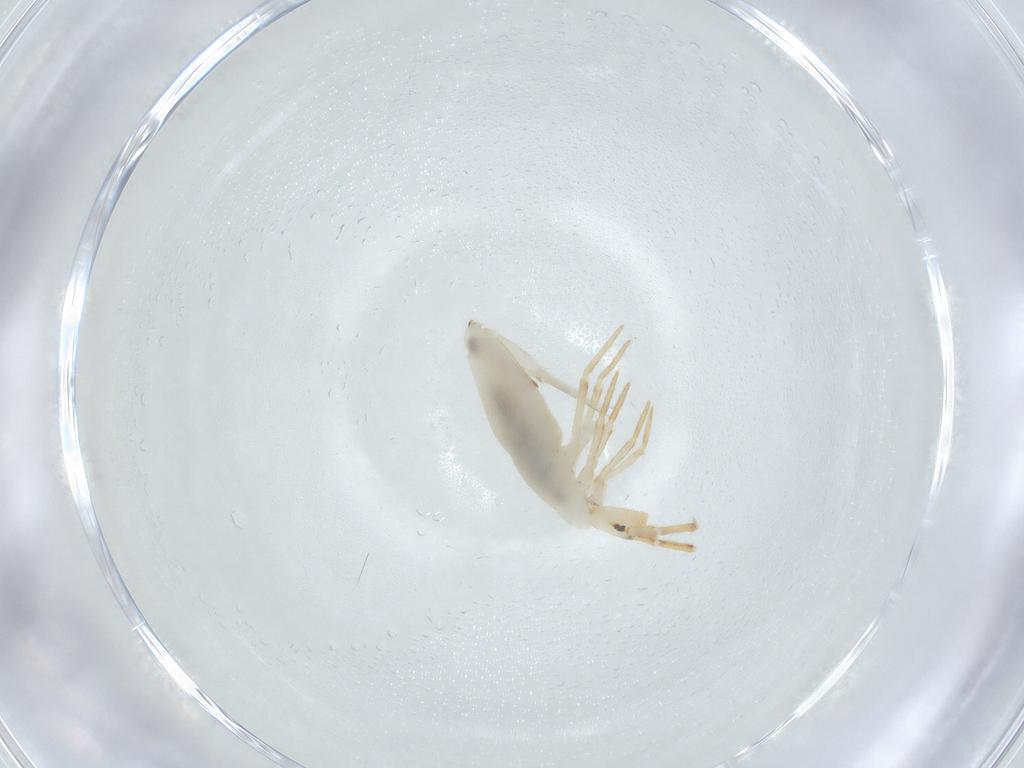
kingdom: Animalia
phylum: Arthropoda
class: Collembola
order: Entomobryomorpha
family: Entomobryidae
